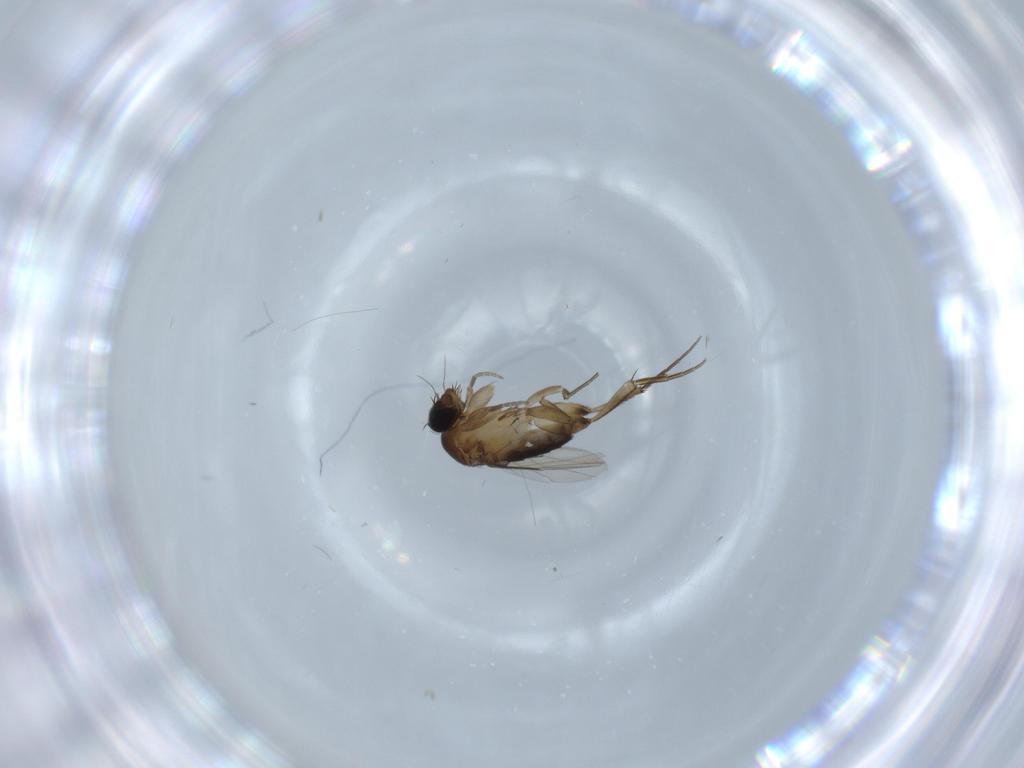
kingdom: Animalia
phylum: Arthropoda
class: Insecta
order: Diptera
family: Phoridae
